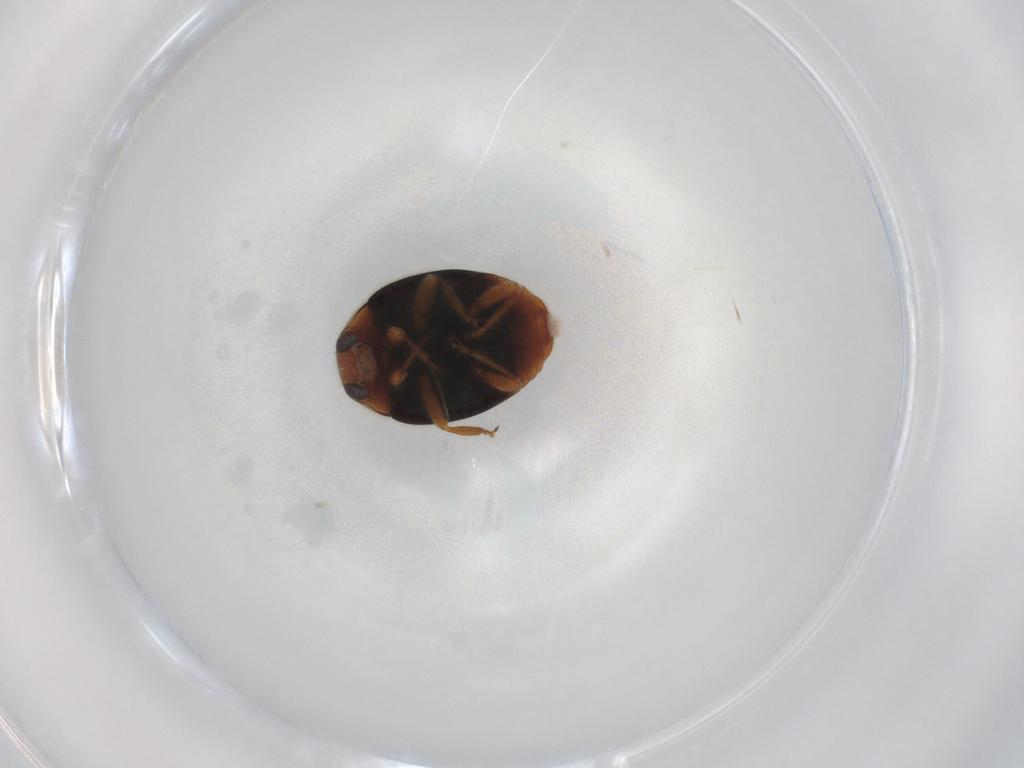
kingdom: Animalia
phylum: Arthropoda
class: Insecta
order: Coleoptera
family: Coccinellidae
